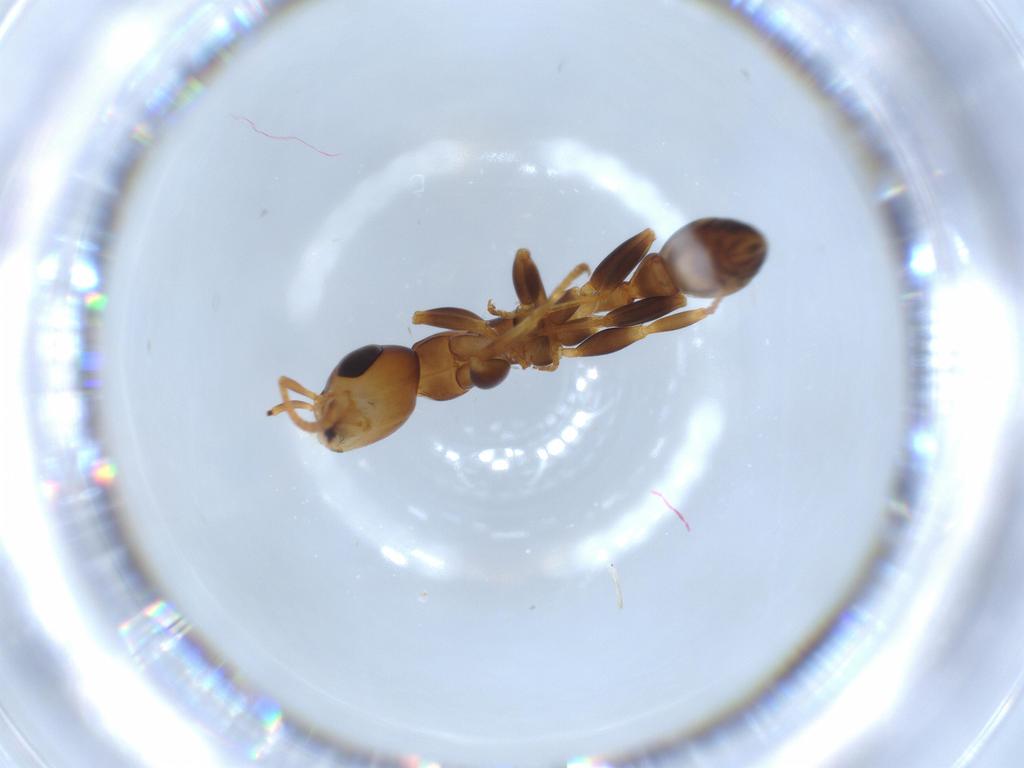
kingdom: Animalia
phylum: Arthropoda
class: Insecta
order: Hymenoptera
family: Formicidae
